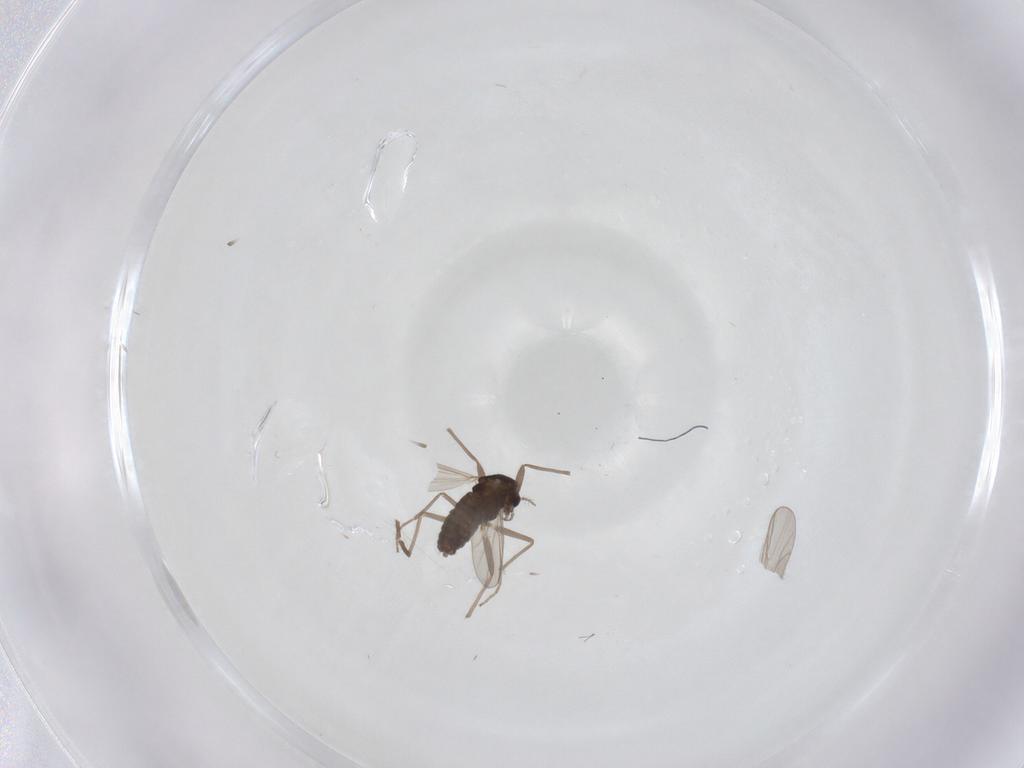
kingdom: Animalia
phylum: Arthropoda
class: Insecta
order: Diptera
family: Chironomidae
